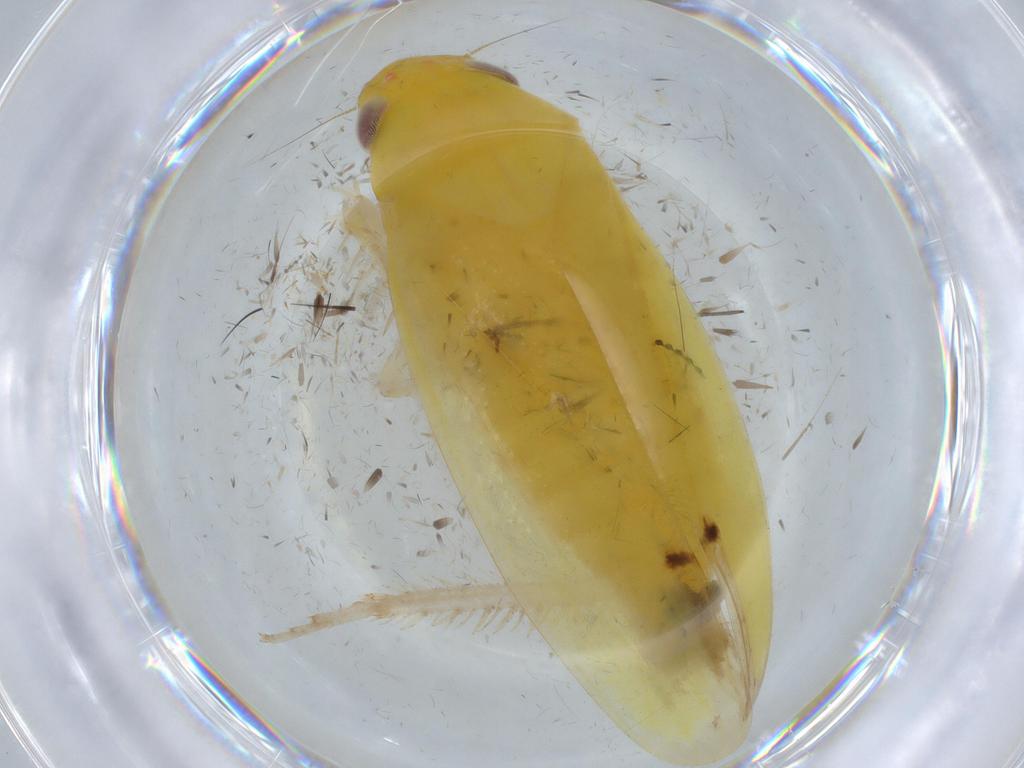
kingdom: Animalia
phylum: Arthropoda
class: Insecta
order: Hemiptera
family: Cicadellidae
